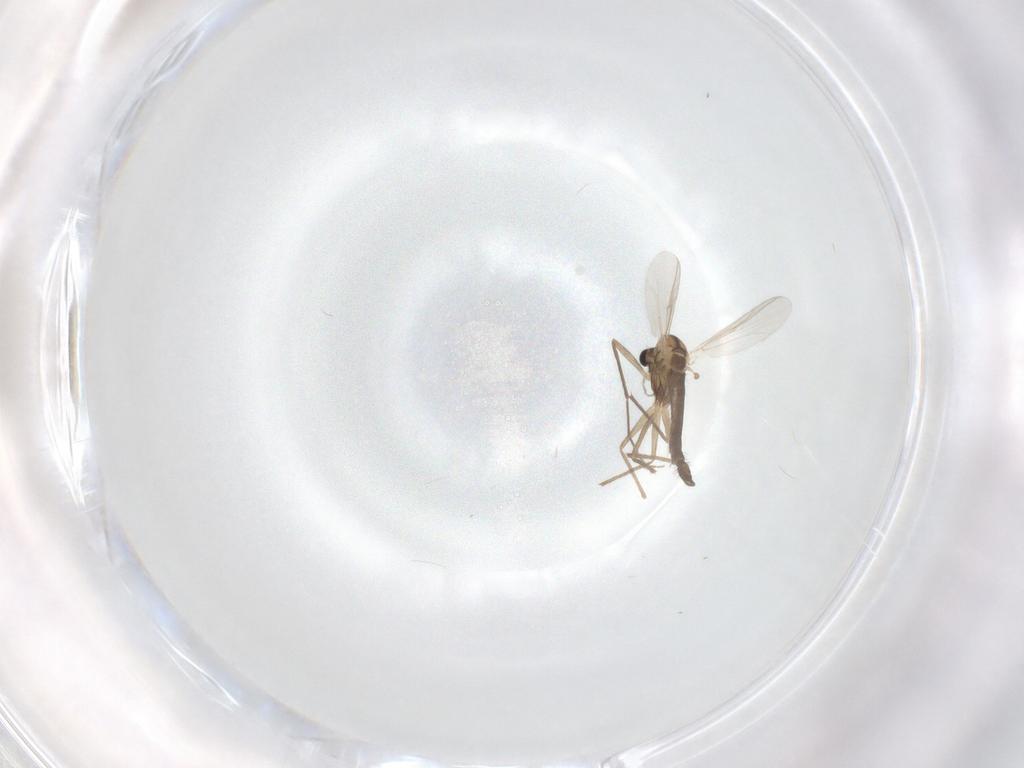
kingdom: Animalia
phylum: Arthropoda
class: Insecta
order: Diptera
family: Chironomidae
